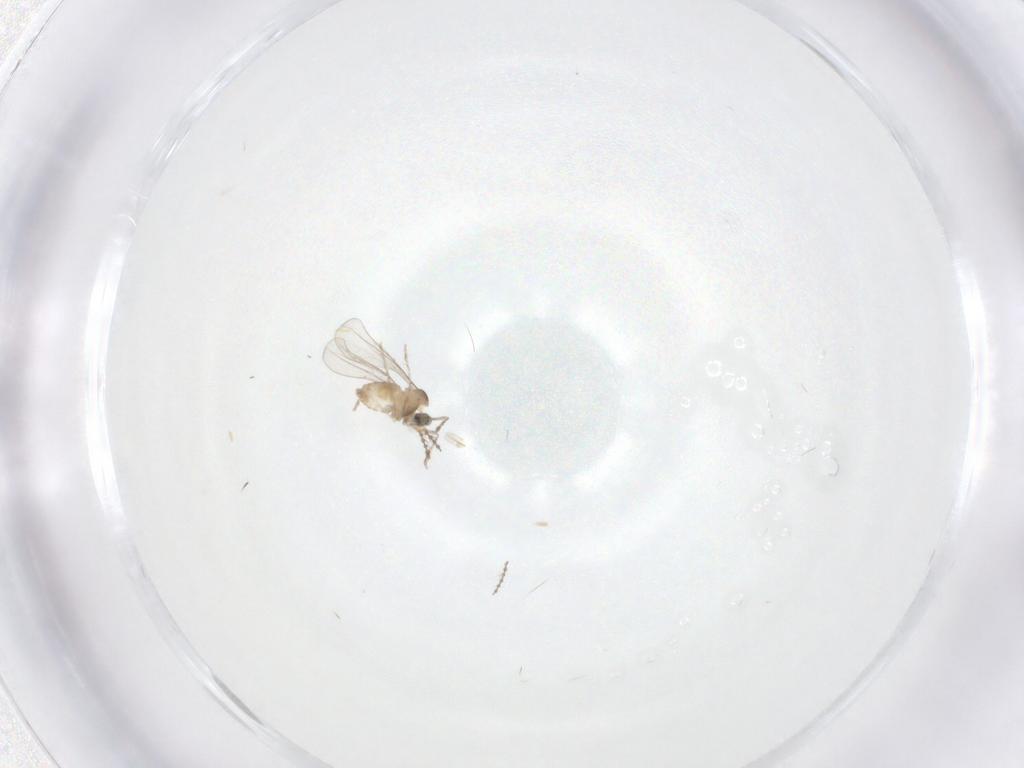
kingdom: Animalia
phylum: Arthropoda
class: Insecta
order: Diptera
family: Cecidomyiidae
